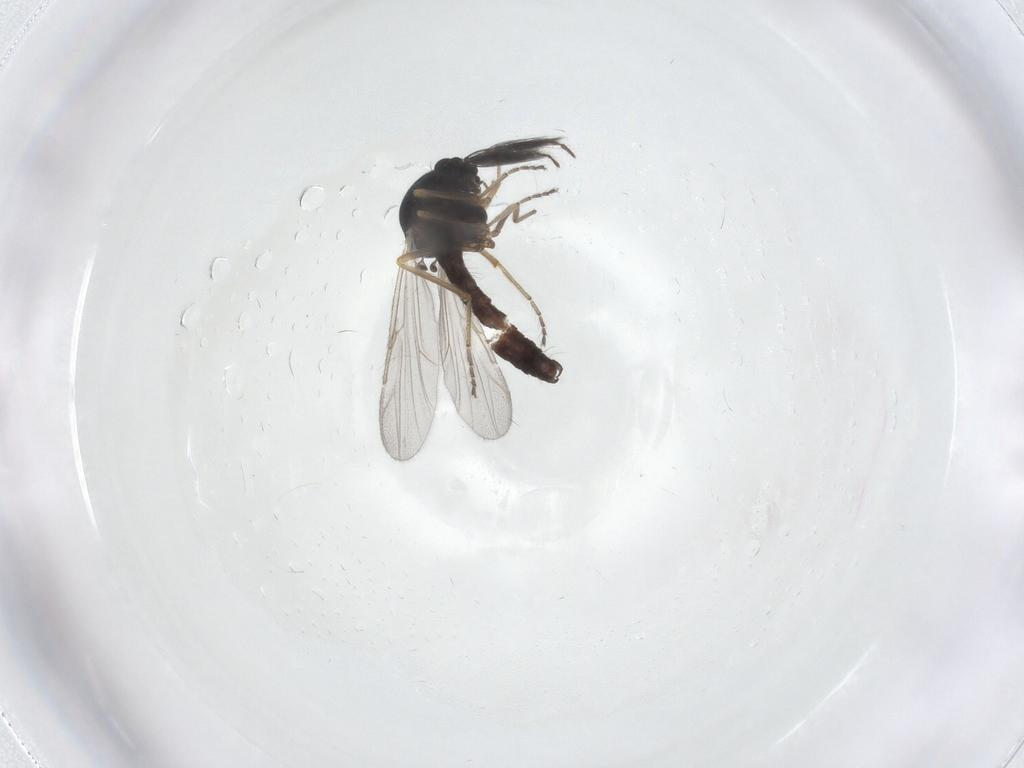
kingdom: Animalia
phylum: Arthropoda
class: Insecta
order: Diptera
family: Ceratopogonidae
